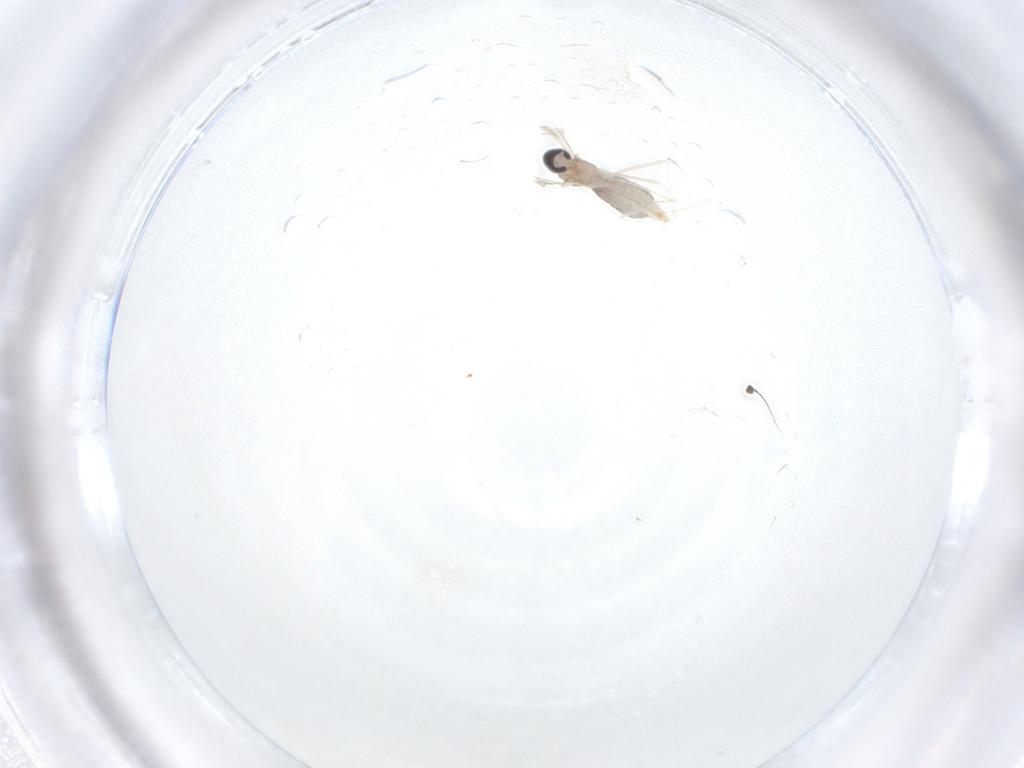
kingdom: Animalia
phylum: Arthropoda
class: Insecta
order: Diptera
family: Cecidomyiidae
